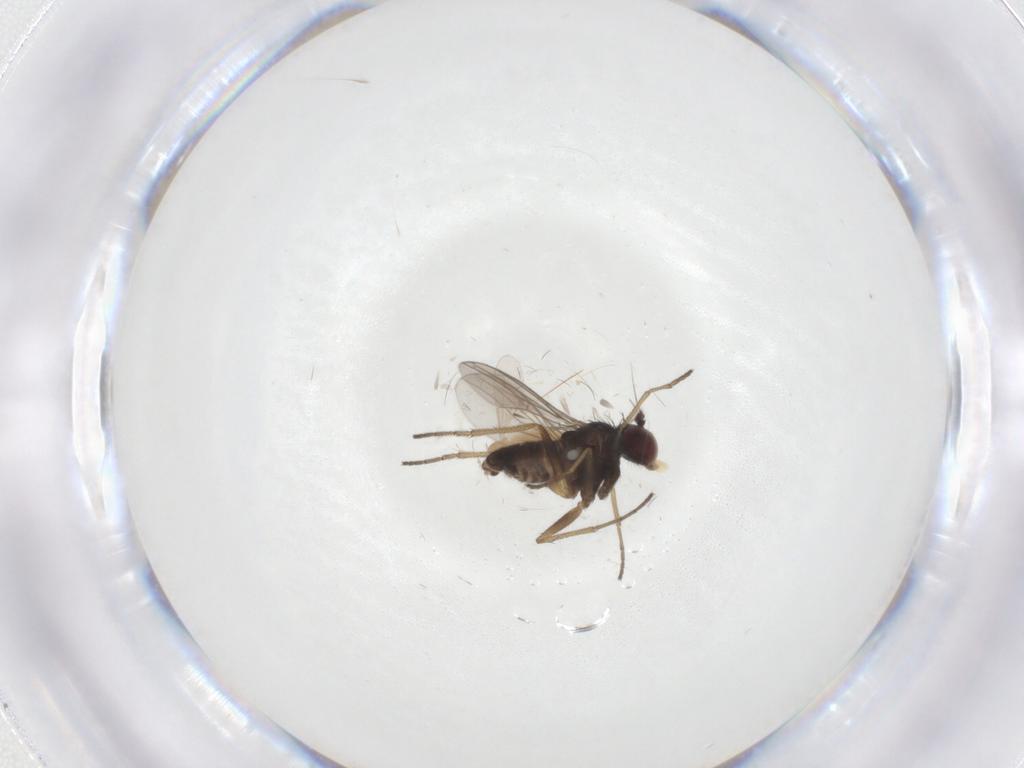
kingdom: Animalia
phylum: Arthropoda
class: Insecta
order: Diptera
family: Dolichopodidae
